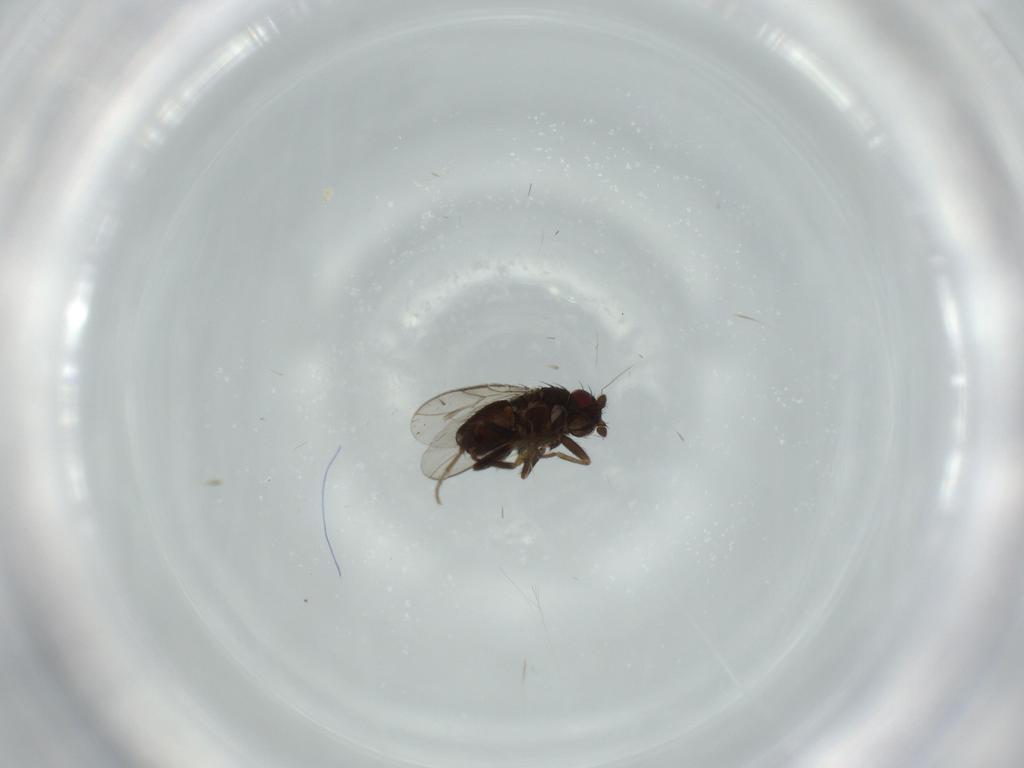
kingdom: Animalia
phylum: Arthropoda
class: Insecta
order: Diptera
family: Sphaeroceridae
